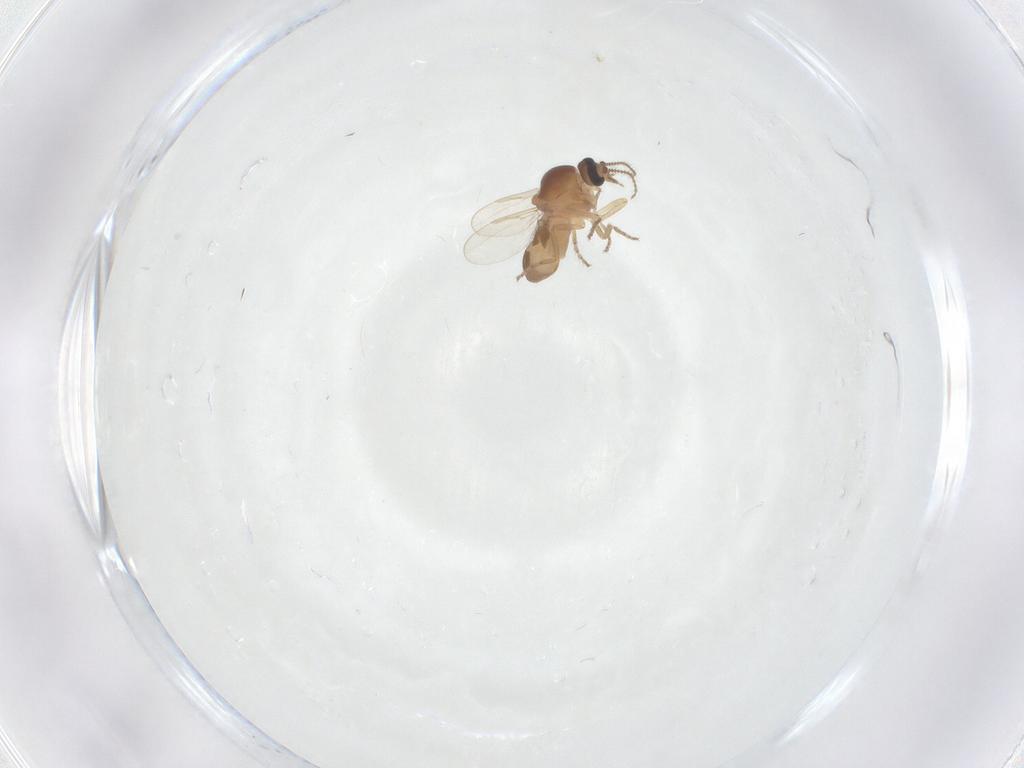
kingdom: Animalia
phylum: Arthropoda
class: Insecta
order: Diptera
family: Ceratopogonidae
